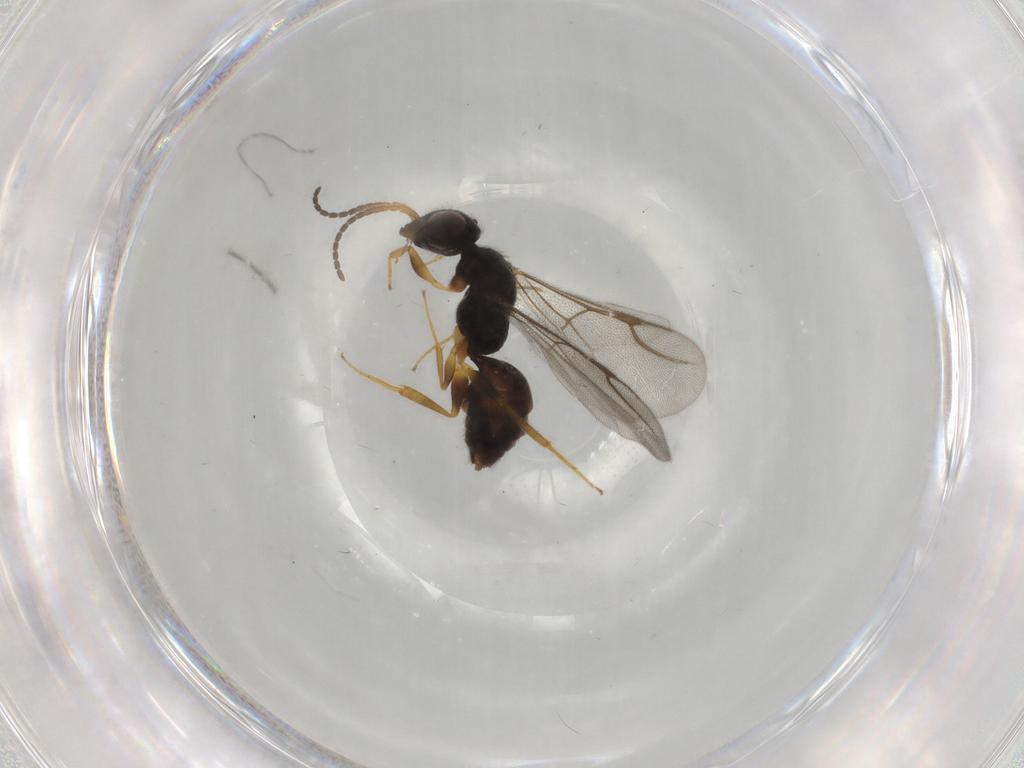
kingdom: Animalia
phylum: Arthropoda
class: Insecta
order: Hymenoptera
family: Bethylidae
